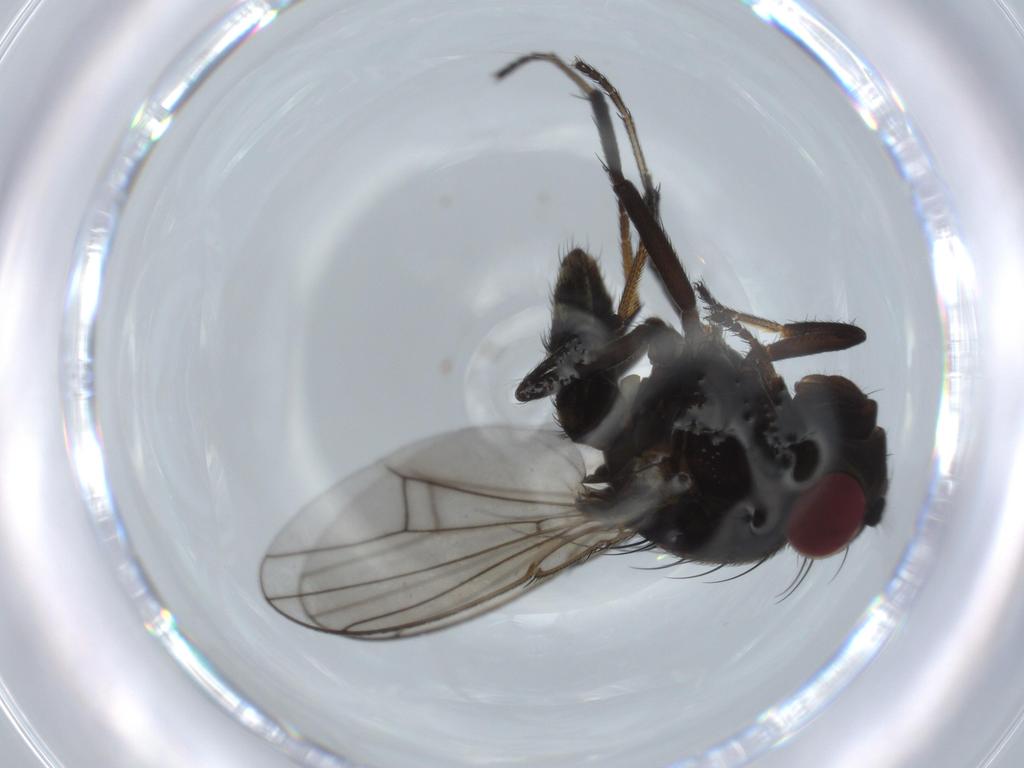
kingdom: Animalia
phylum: Arthropoda
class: Insecta
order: Diptera
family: Ephydridae
